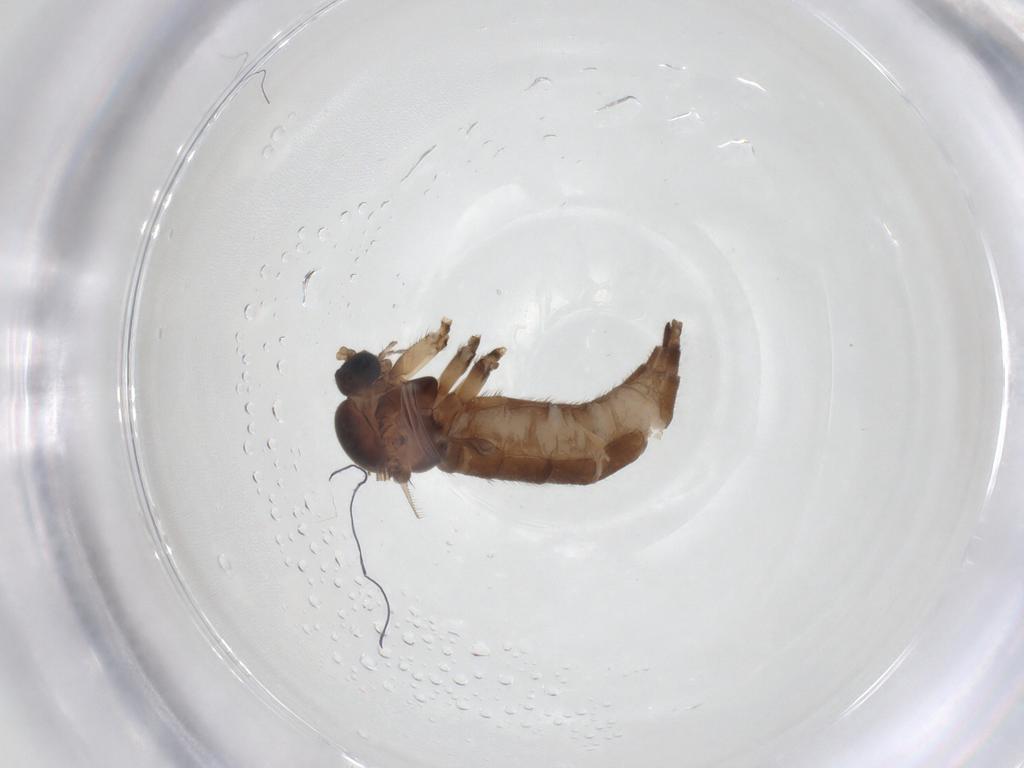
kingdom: Animalia
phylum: Arthropoda
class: Insecta
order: Diptera
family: Sciaridae
